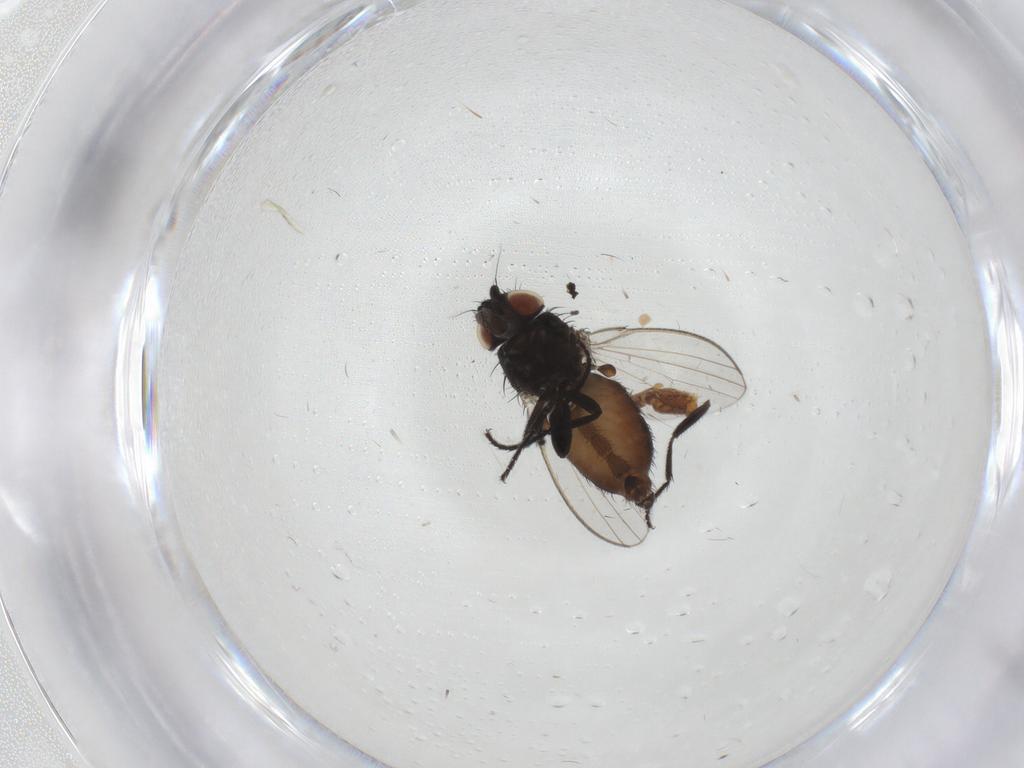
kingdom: Animalia
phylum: Arthropoda
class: Insecta
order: Diptera
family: Milichiidae
